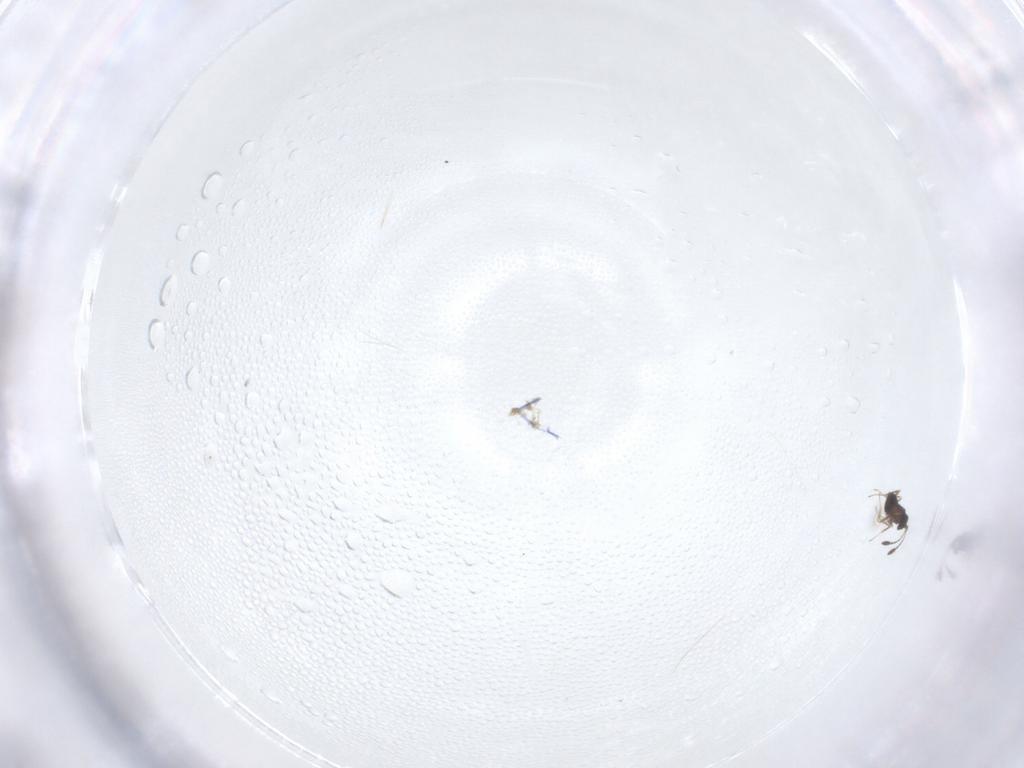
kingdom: Animalia
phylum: Arthropoda
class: Insecta
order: Hymenoptera
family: Mymaridae
